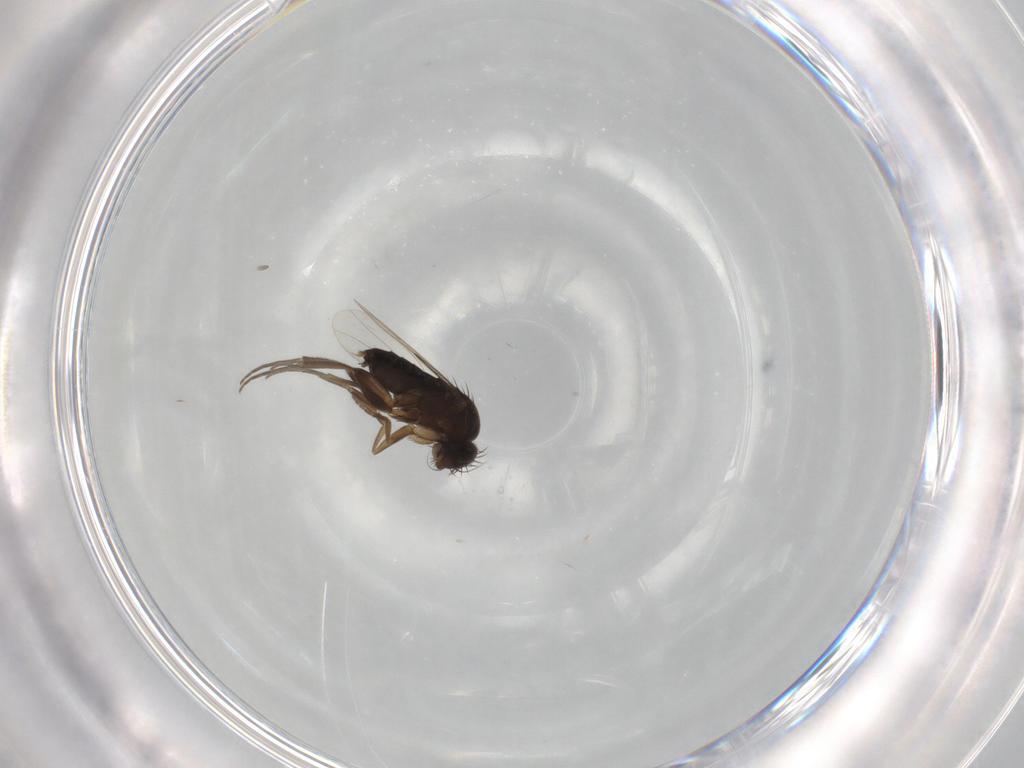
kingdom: Animalia
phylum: Arthropoda
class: Insecta
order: Diptera
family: Phoridae
